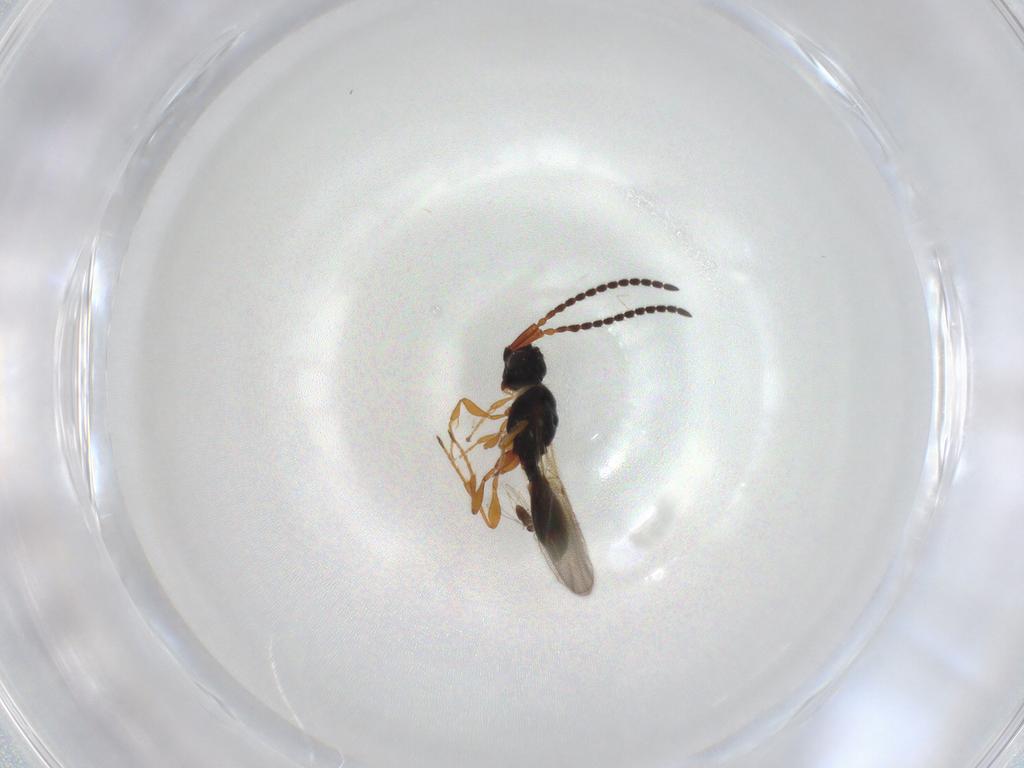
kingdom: Animalia
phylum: Arthropoda
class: Insecta
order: Hymenoptera
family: Diapriidae
